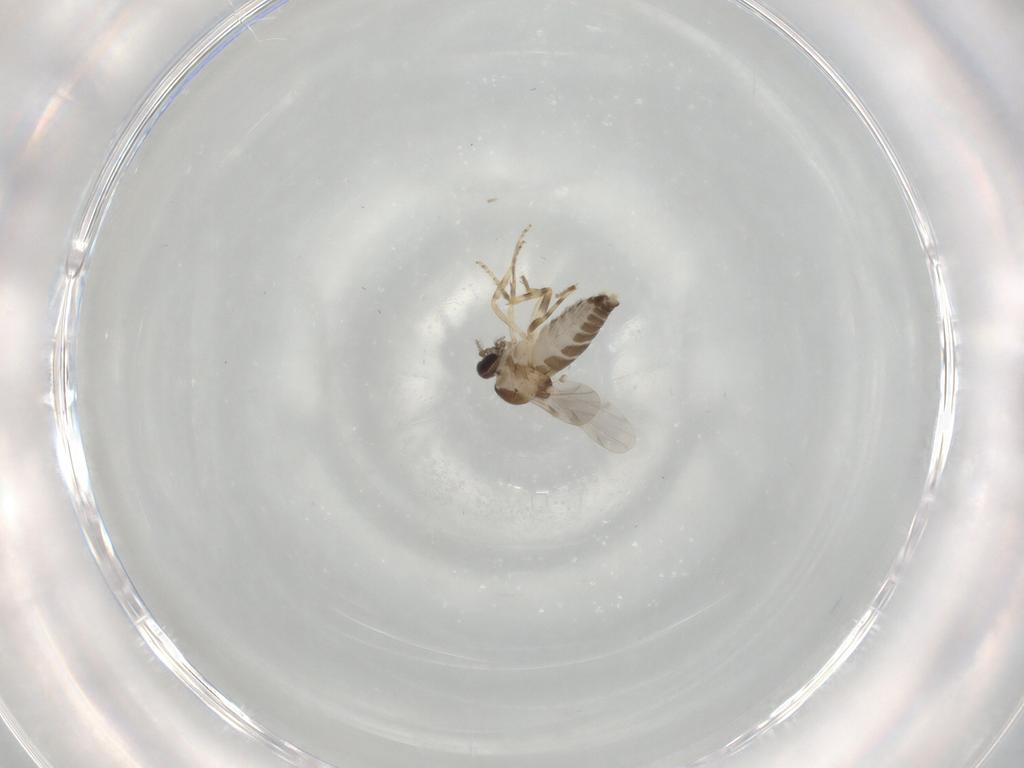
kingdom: Animalia
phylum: Arthropoda
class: Insecta
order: Diptera
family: Ceratopogonidae
